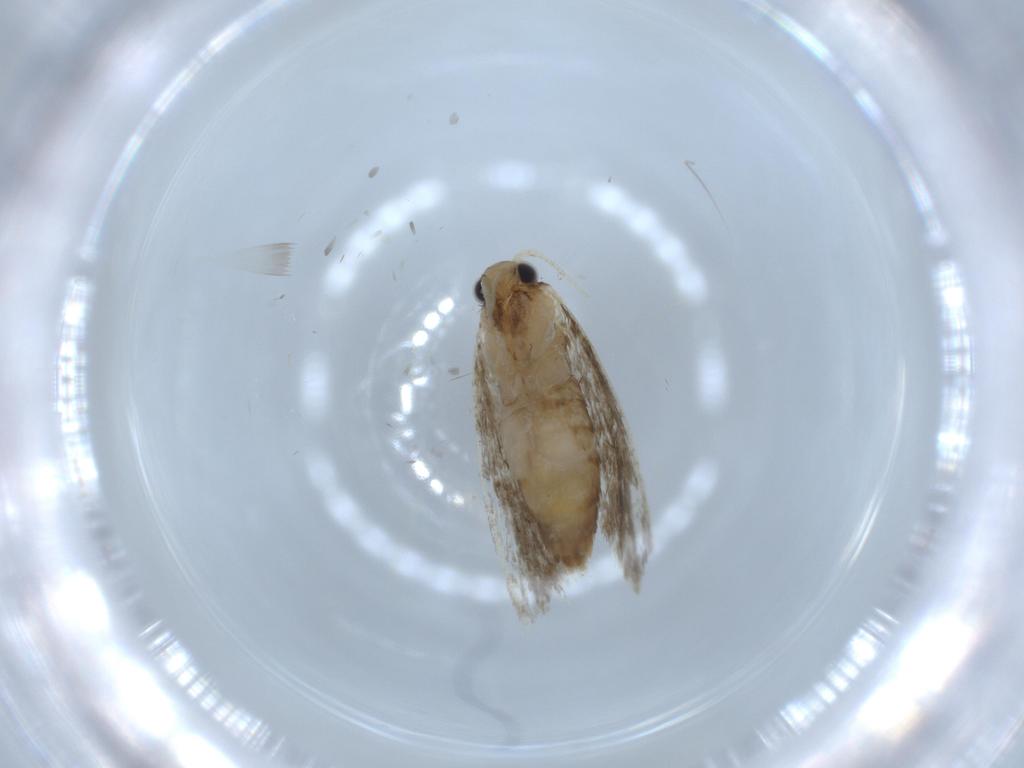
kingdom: Animalia
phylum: Arthropoda
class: Insecta
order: Lepidoptera
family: Tineidae
